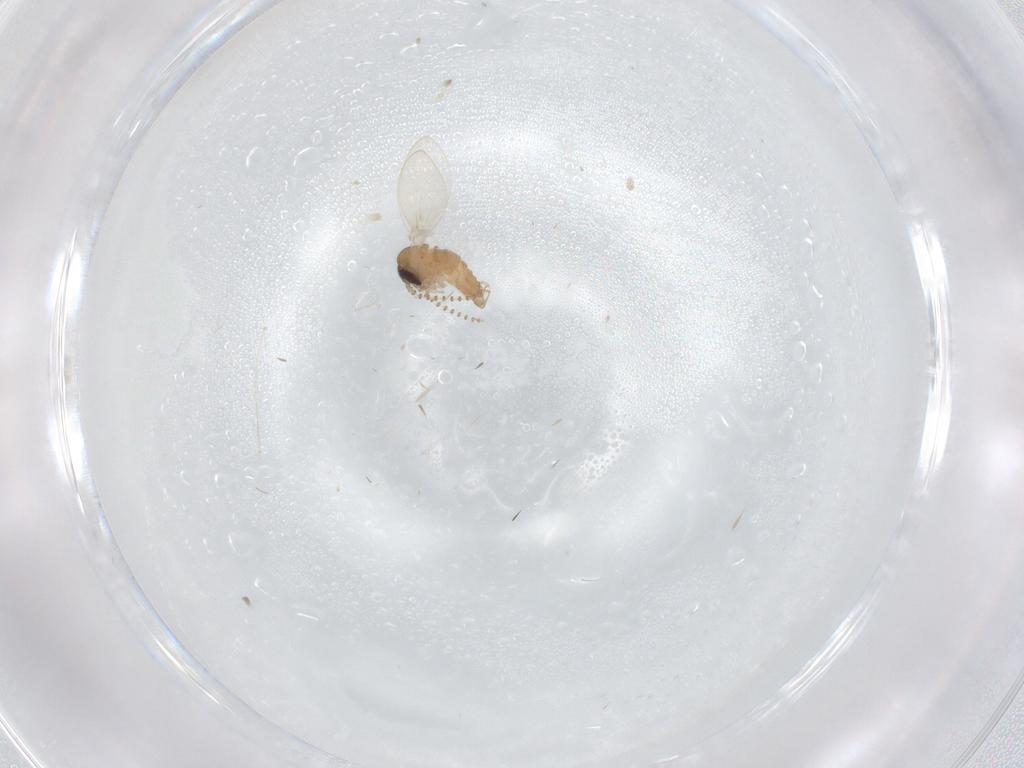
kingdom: Animalia
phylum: Arthropoda
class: Insecta
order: Diptera
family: Psychodidae
